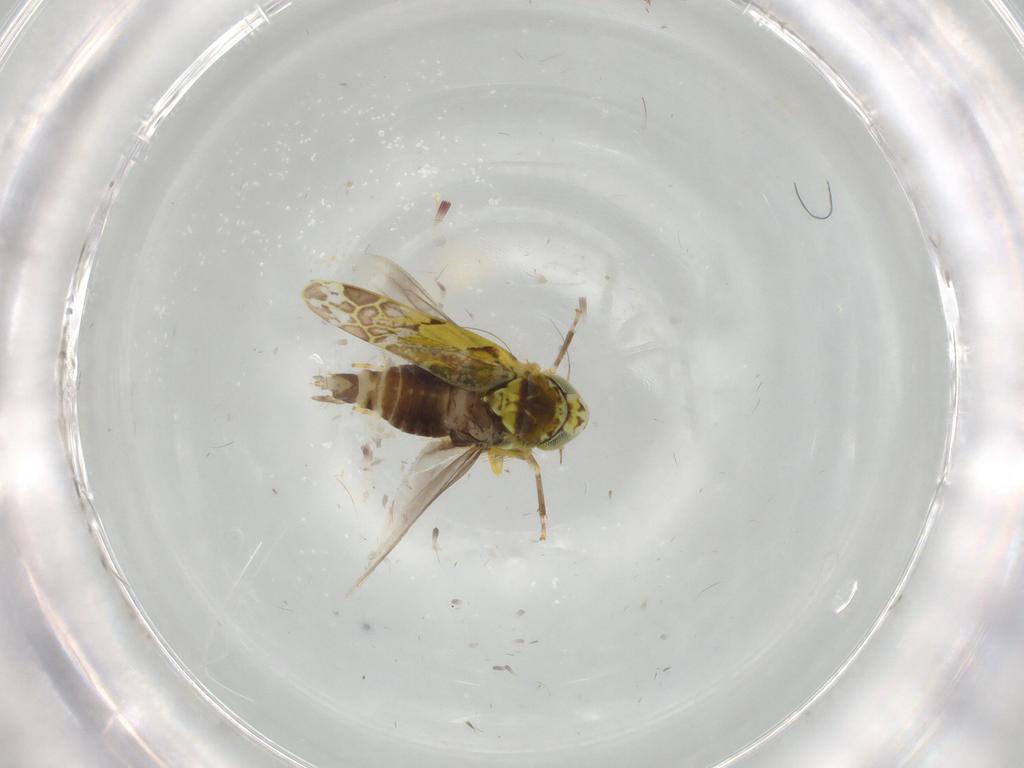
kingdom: Animalia
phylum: Arthropoda
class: Insecta
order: Hemiptera
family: Cicadellidae
